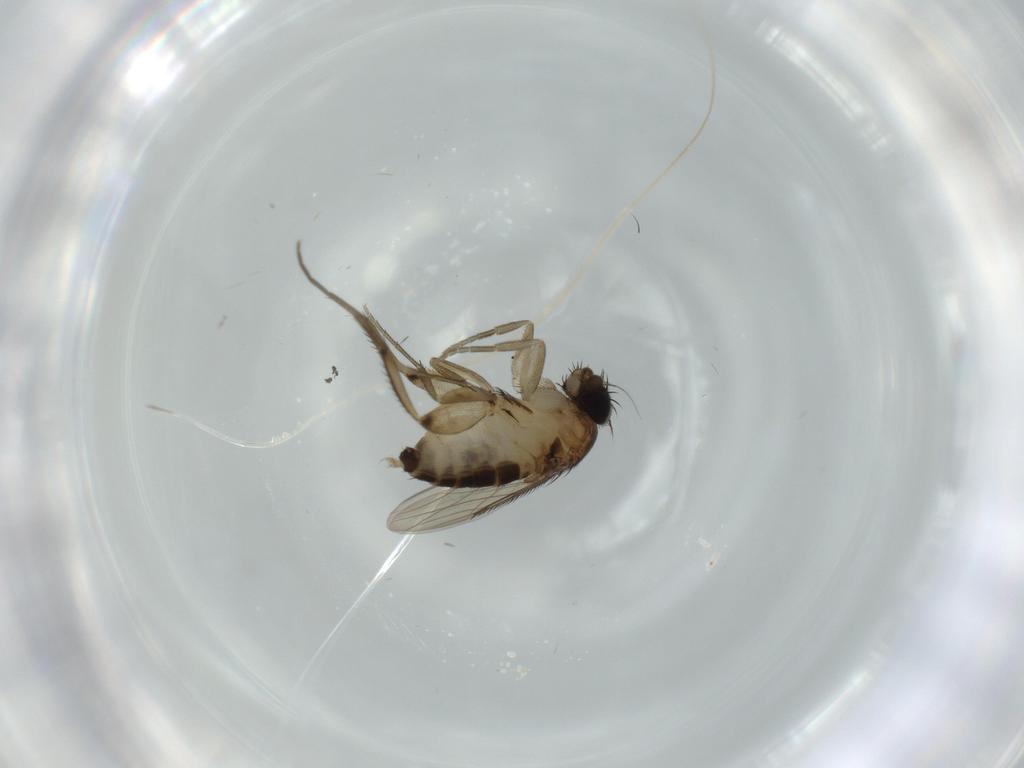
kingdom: Animalia
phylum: Arthropoda
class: Insecta
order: Diptera
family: Phoridae
